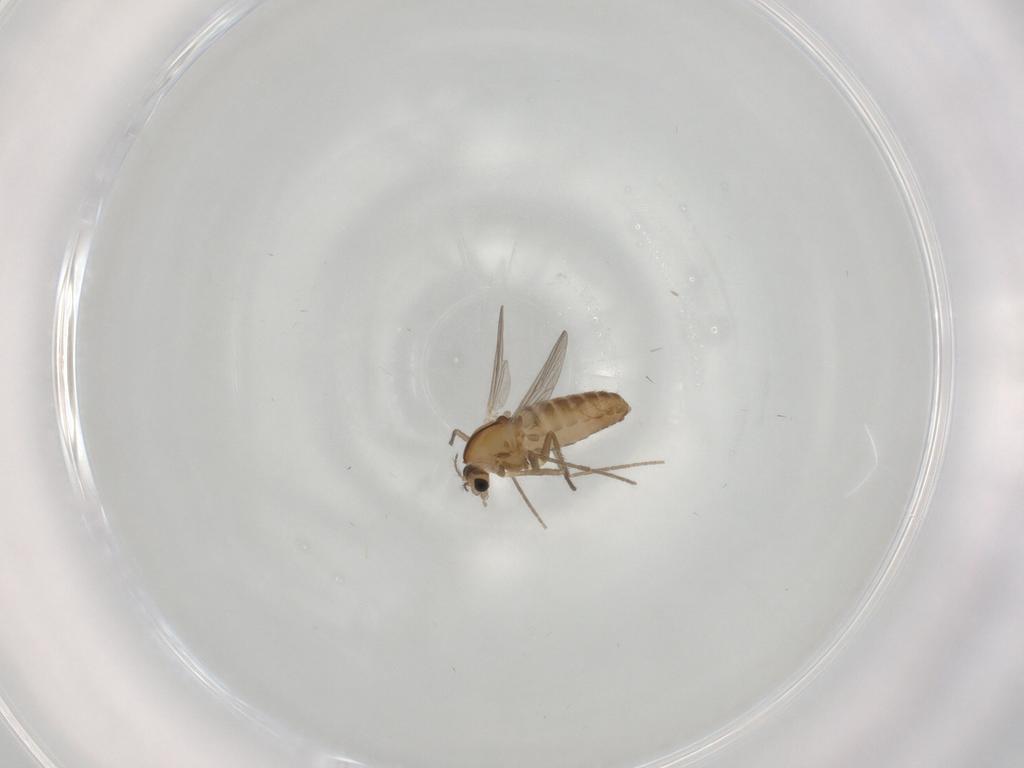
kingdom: Animalia
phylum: Arthropoda
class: Insecta
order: Diptera
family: Chironomidae
